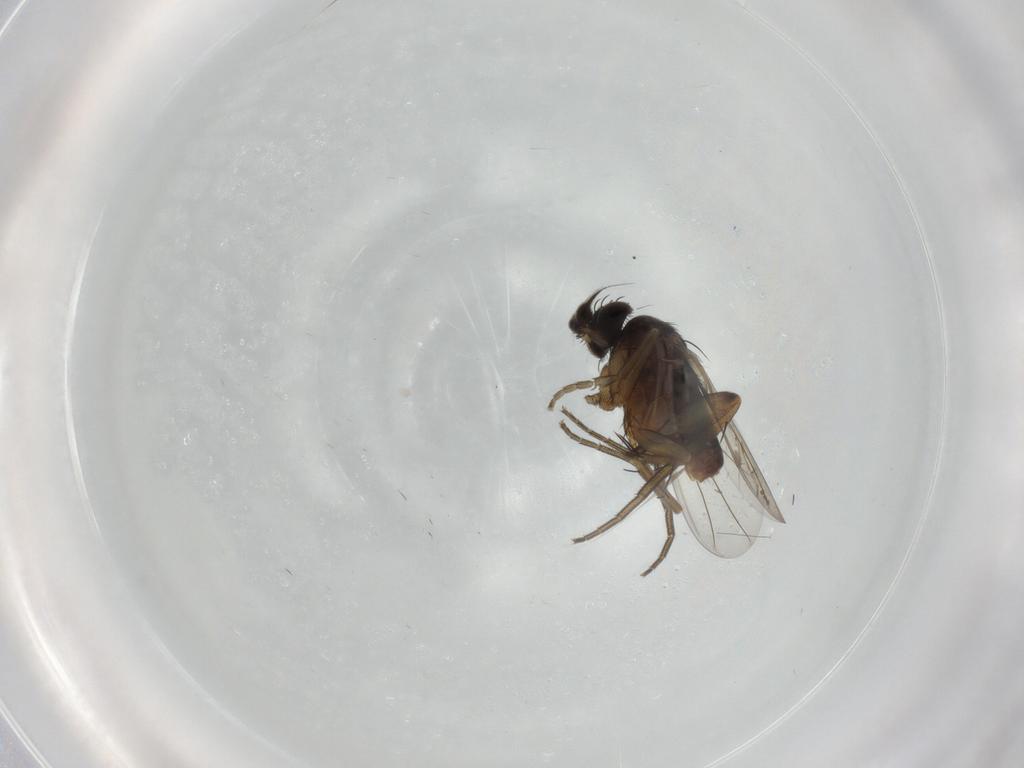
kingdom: Animalia
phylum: Arthropoda
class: Insecta
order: Diptera
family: Phoridae
